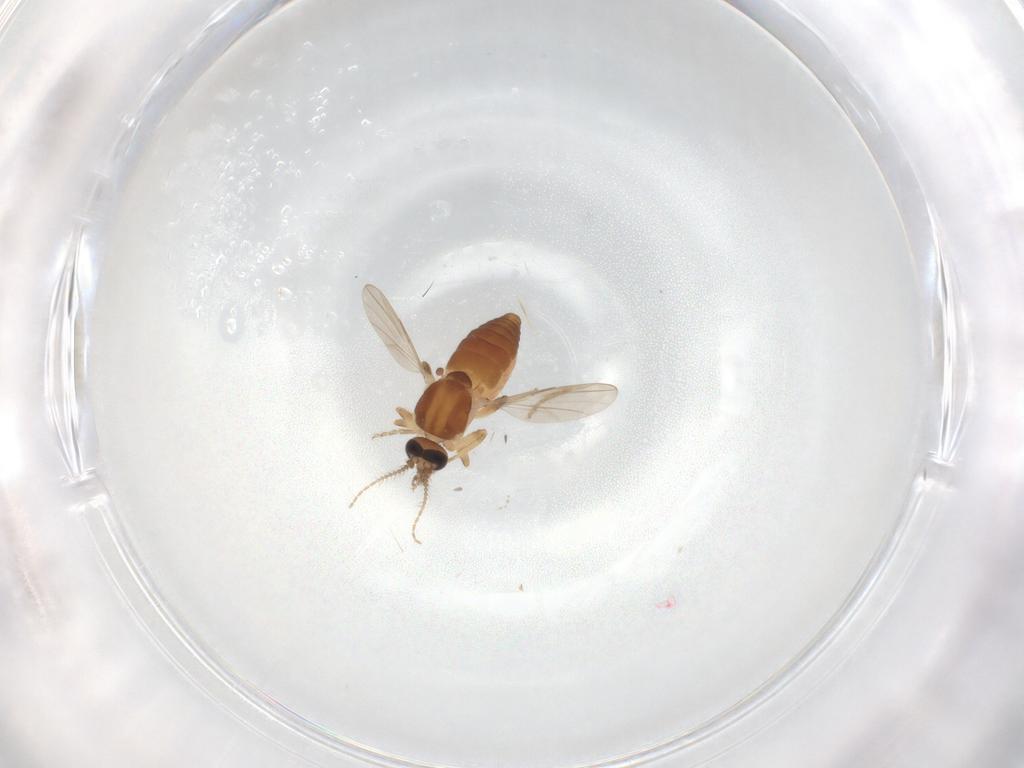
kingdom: Animalia
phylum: Arthropoda
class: Insecta
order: Diptera
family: Ceratopogonidae
